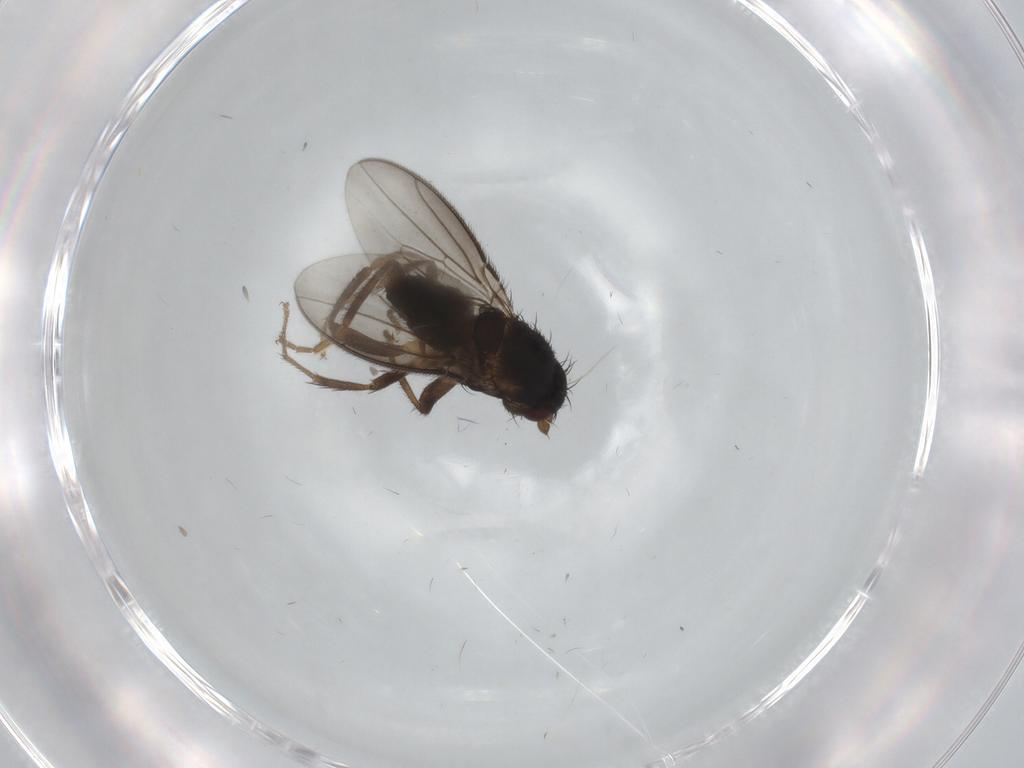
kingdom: Animalia
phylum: Arthropoda
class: Insecta
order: Diptera
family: Sphaeroceridae
